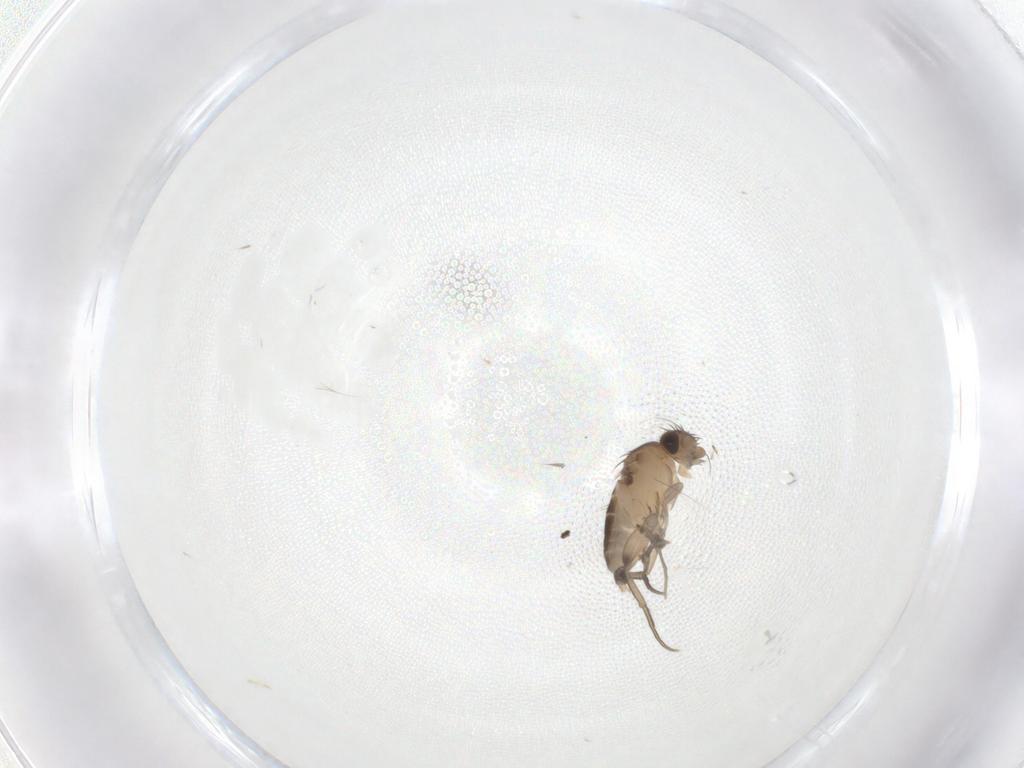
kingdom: Animalia
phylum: Arthropoda
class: Insecta
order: Diptera
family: Phoridae
